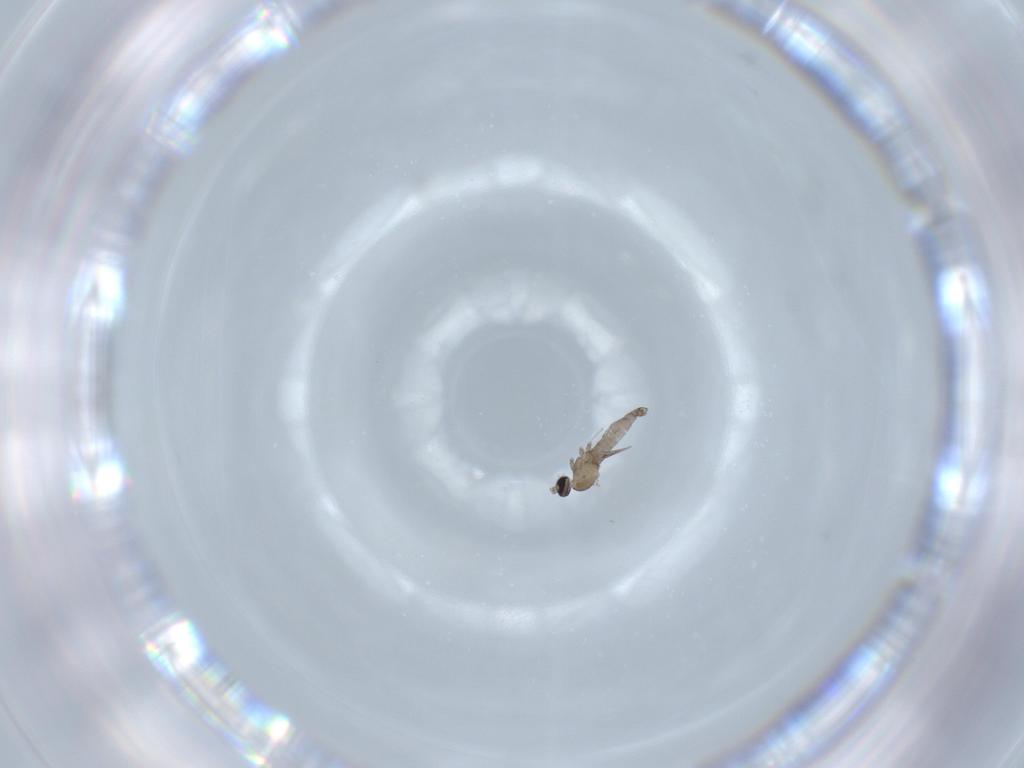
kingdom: Animalia
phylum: Arthropoda
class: Insecta
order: Diptera
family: Cecidomyiidae
